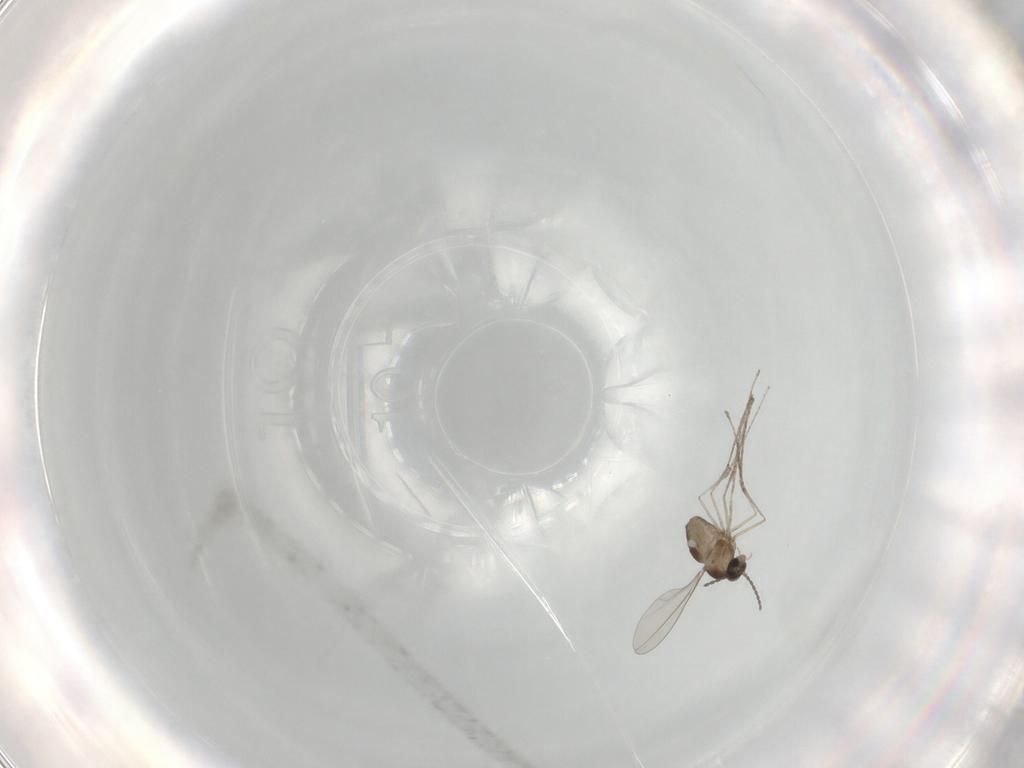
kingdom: Animalia
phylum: Arthropoda
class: Insecta
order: Diptera
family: Cecidomyiidae
